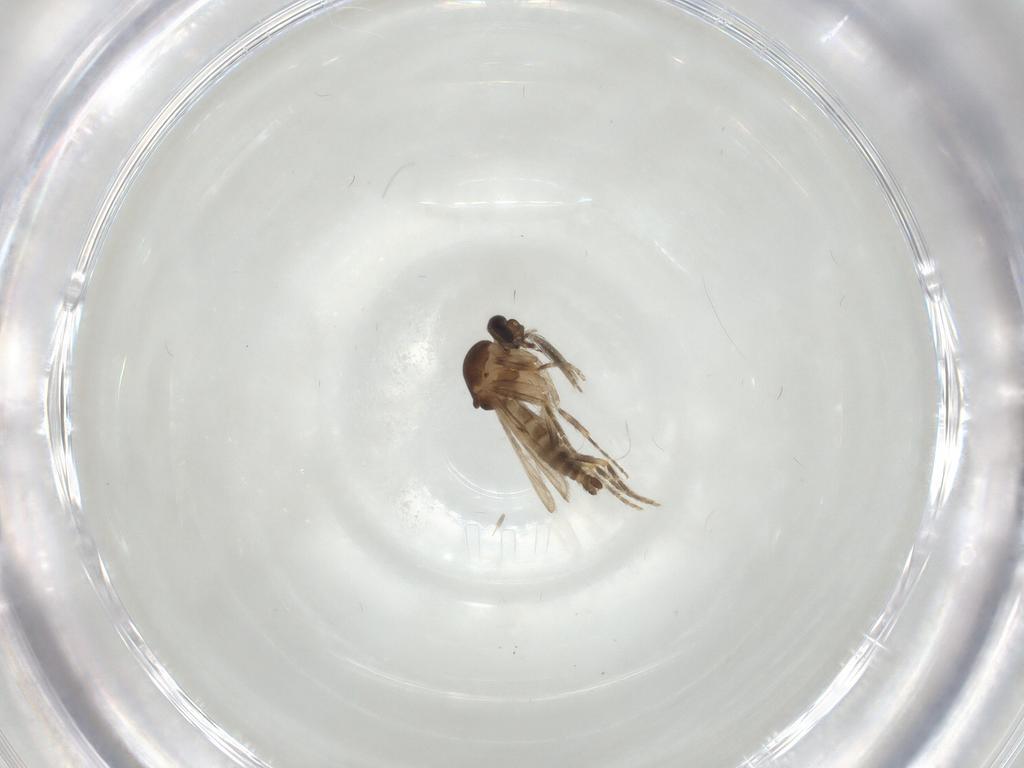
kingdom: Animalia
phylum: Arthropoda
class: Insecta
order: Diptera
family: Ceratopogonidae
